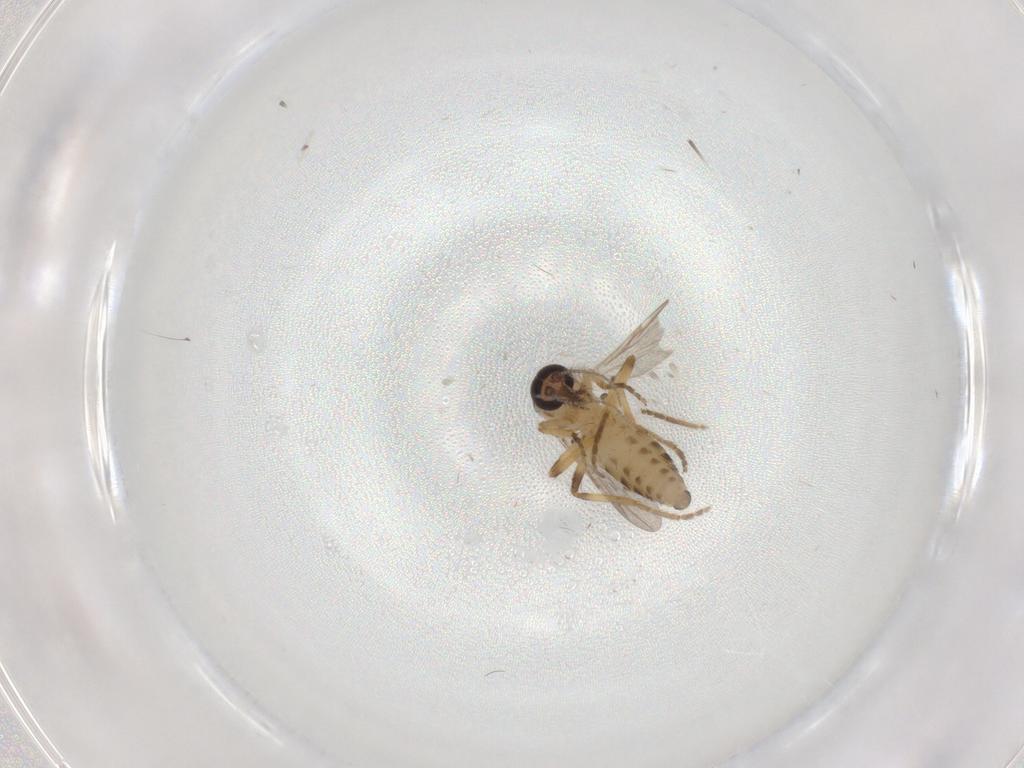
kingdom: Animalia
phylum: Arthropoda
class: Insecta
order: Diptera
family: Ceratopogonidae
